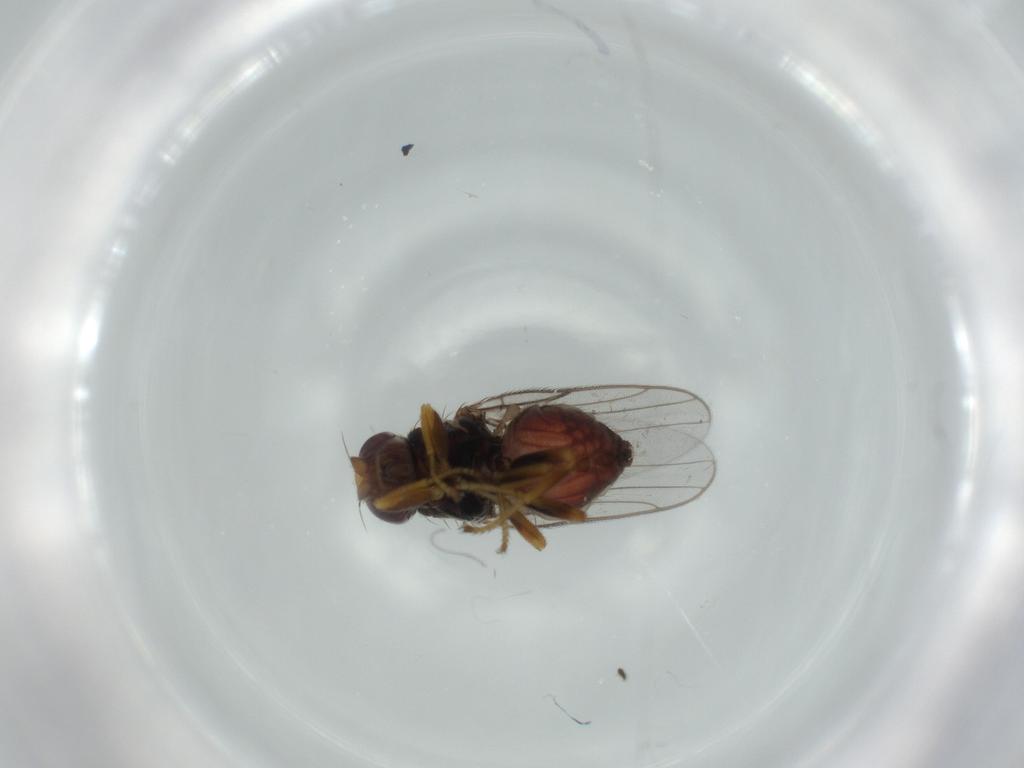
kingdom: Animalia
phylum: Arthropoda
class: Insecta
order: Diptera
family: Chloropidae
